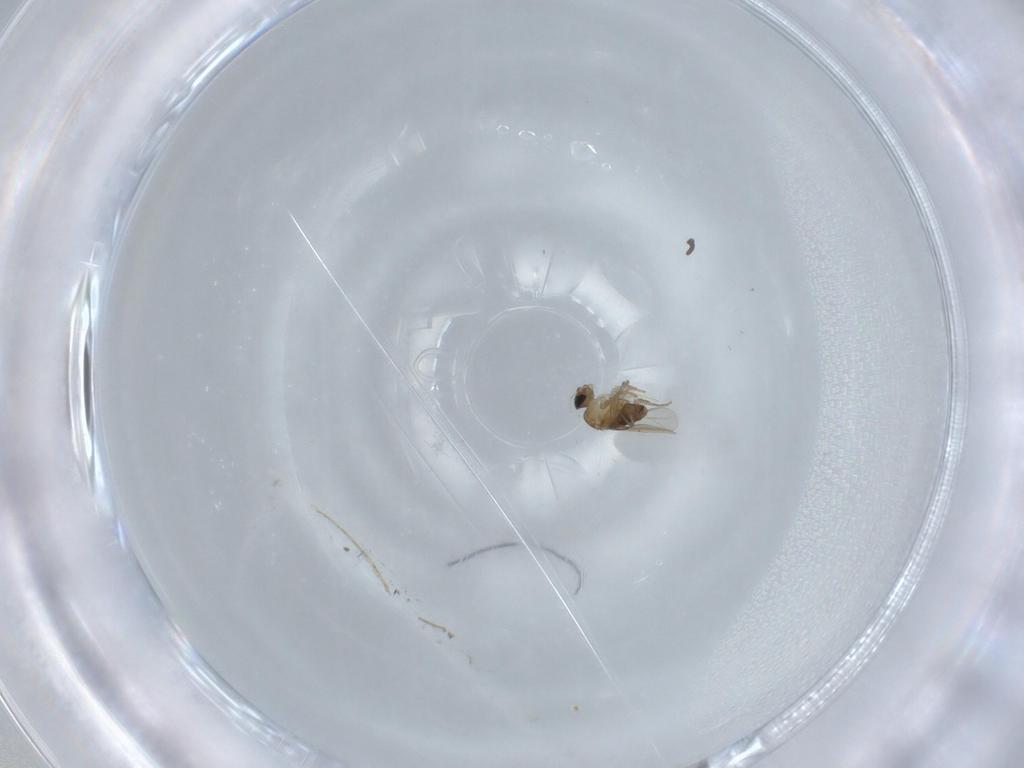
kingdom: Animalia
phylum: Arthropoda
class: Insecta
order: Diptera
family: Phoridae
